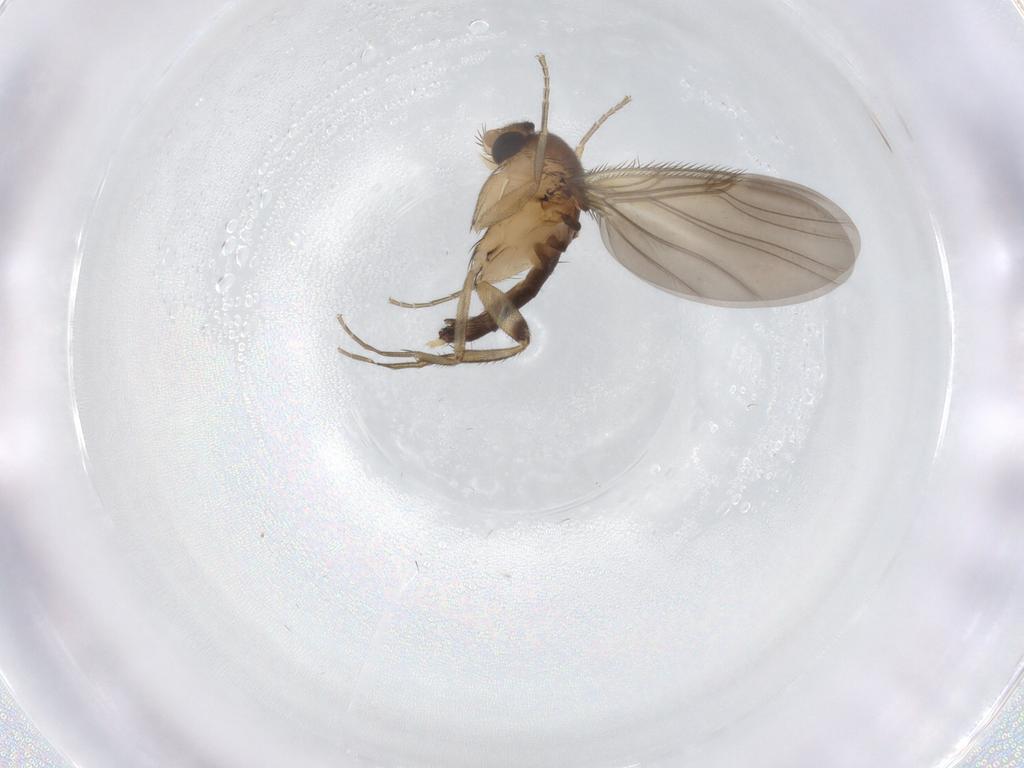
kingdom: Animalia
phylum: Arthropoda
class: Insecta
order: Diptera
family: Phoridae
